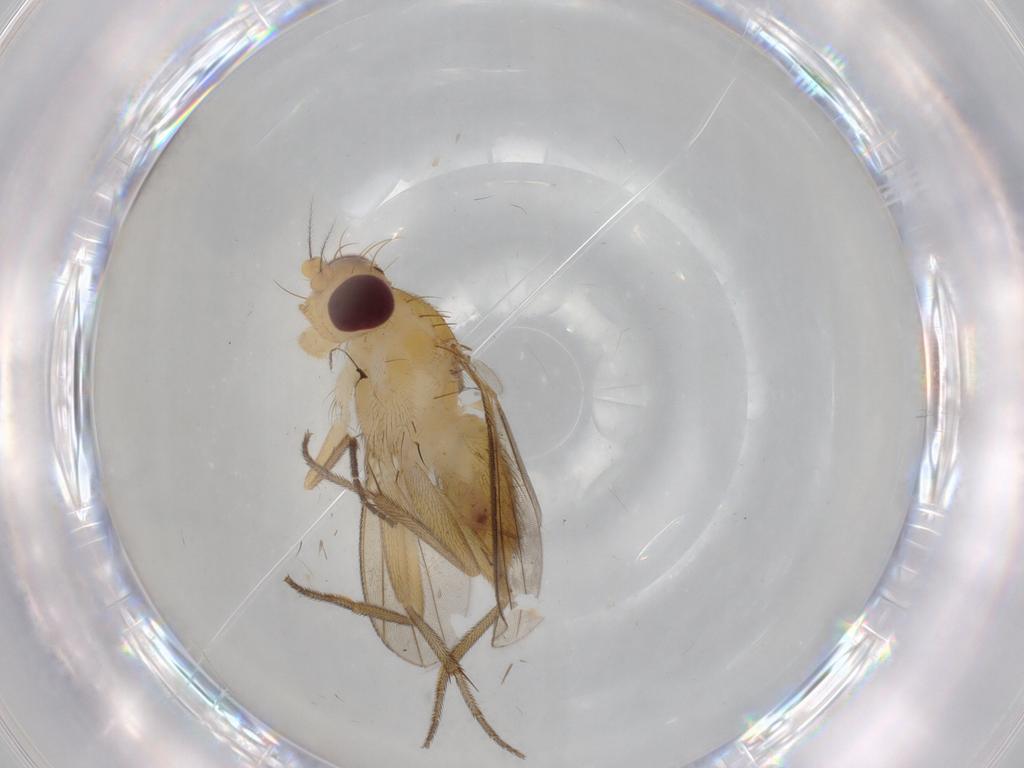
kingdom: Animalia
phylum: Arthropoda
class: Insecta
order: Diptera
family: Clusiidae
